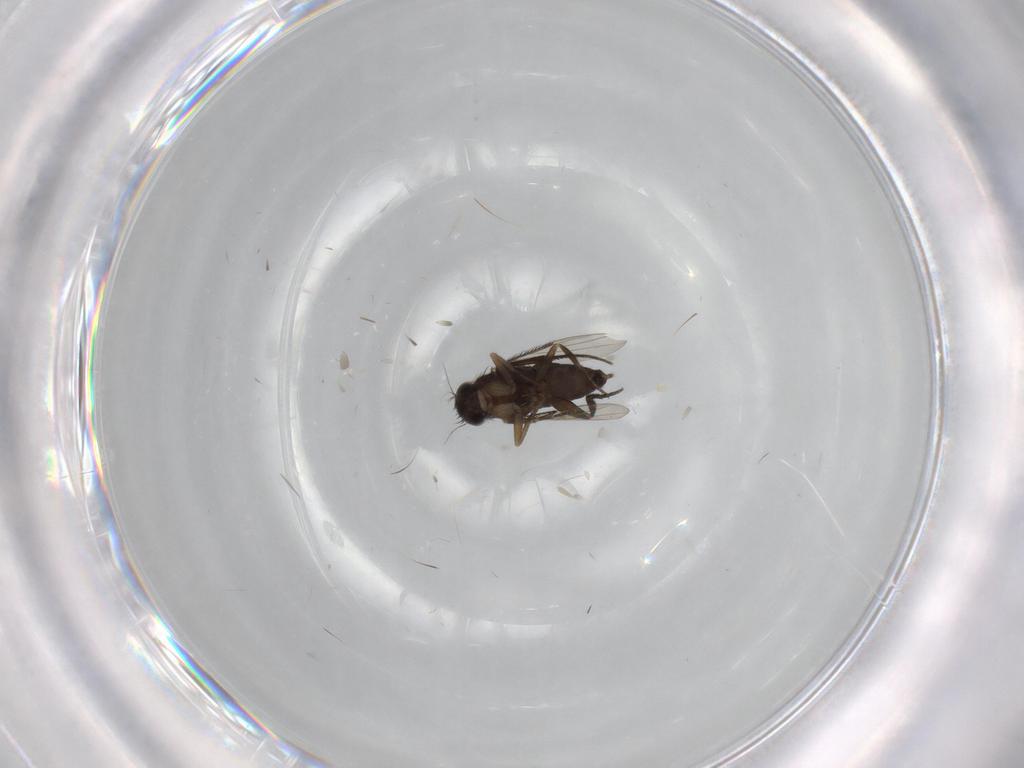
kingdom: Animalia
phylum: Arthropoda
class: Insecta
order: Diptera
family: Phoridae
